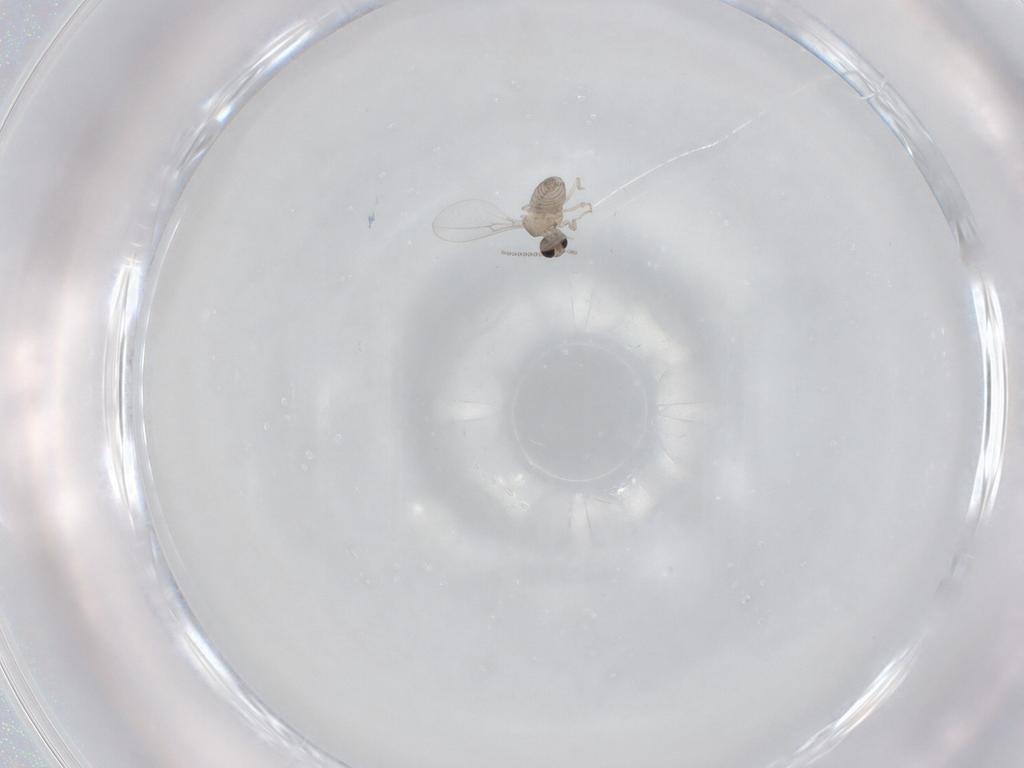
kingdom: Animalia
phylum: Arthropoda
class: Insecta
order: Diptera
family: Cecidomyiidae
